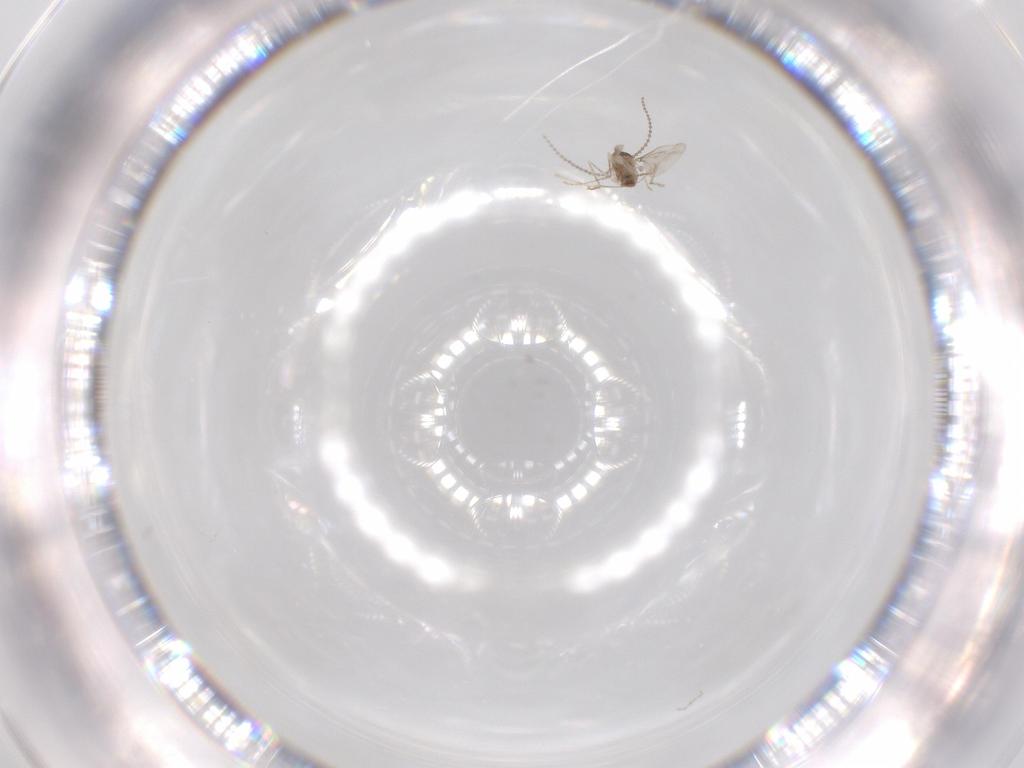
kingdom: Animalia
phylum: Arthropoda
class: Insecta
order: Diptera
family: Cecidomyiidae
